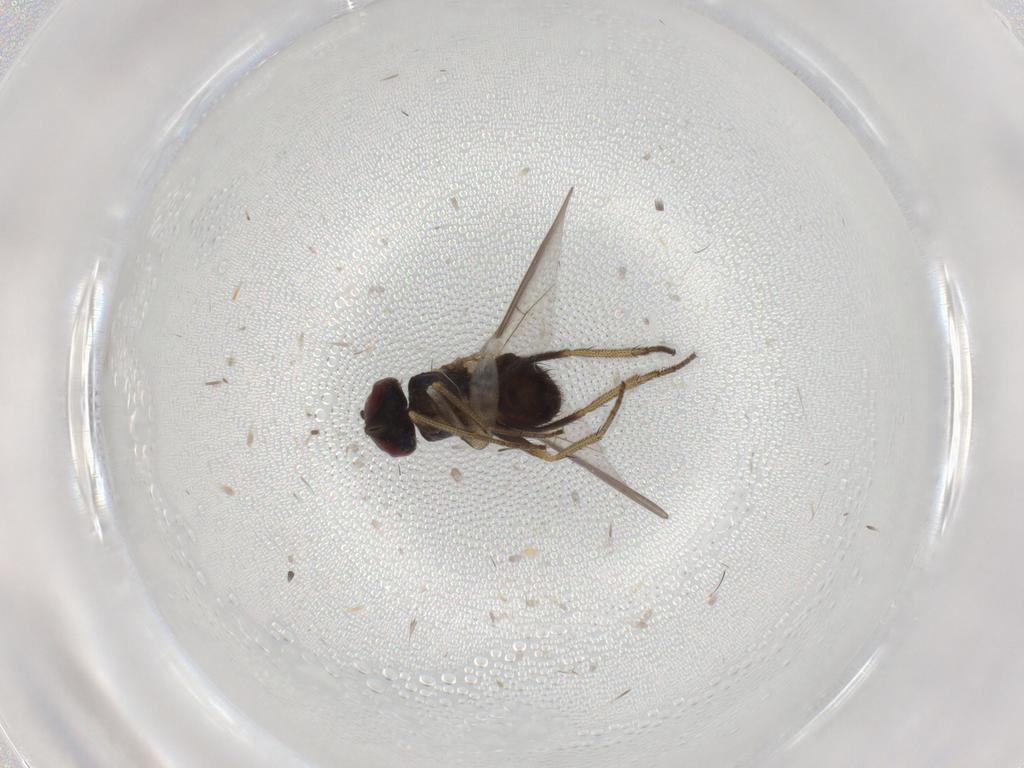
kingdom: Animalia
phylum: Arthropoda
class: Insecta
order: Diptera
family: Dolichopodidae
